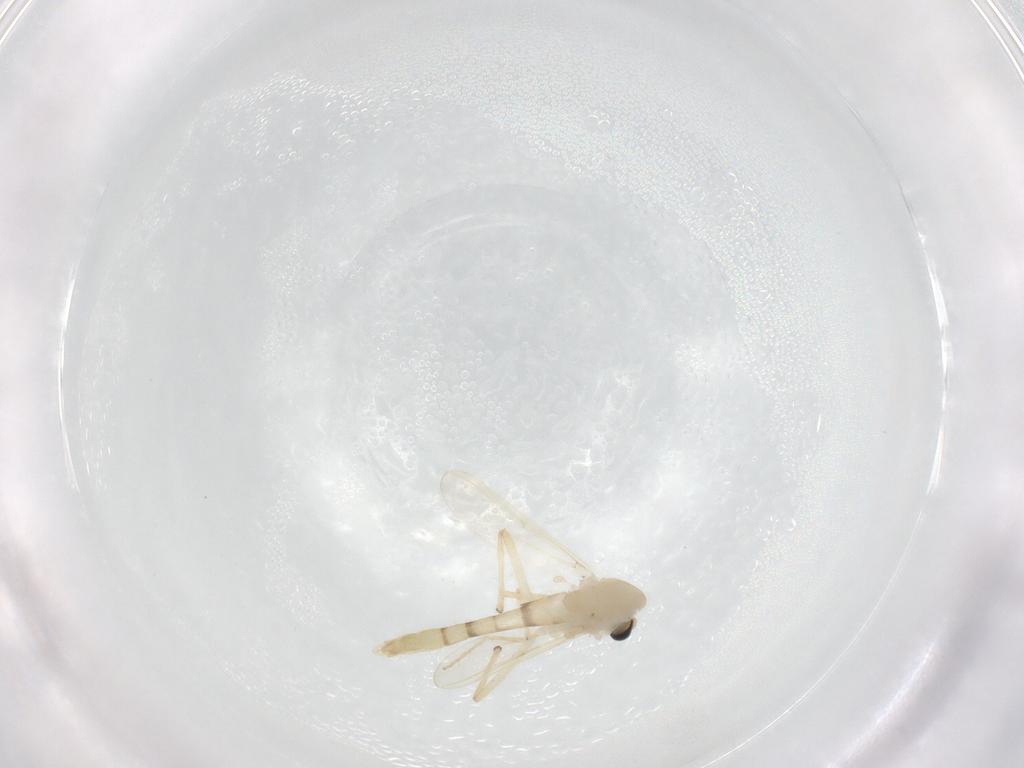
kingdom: Animalia
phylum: Arthropoda
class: Insecta
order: Diptera
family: Chironomidae
